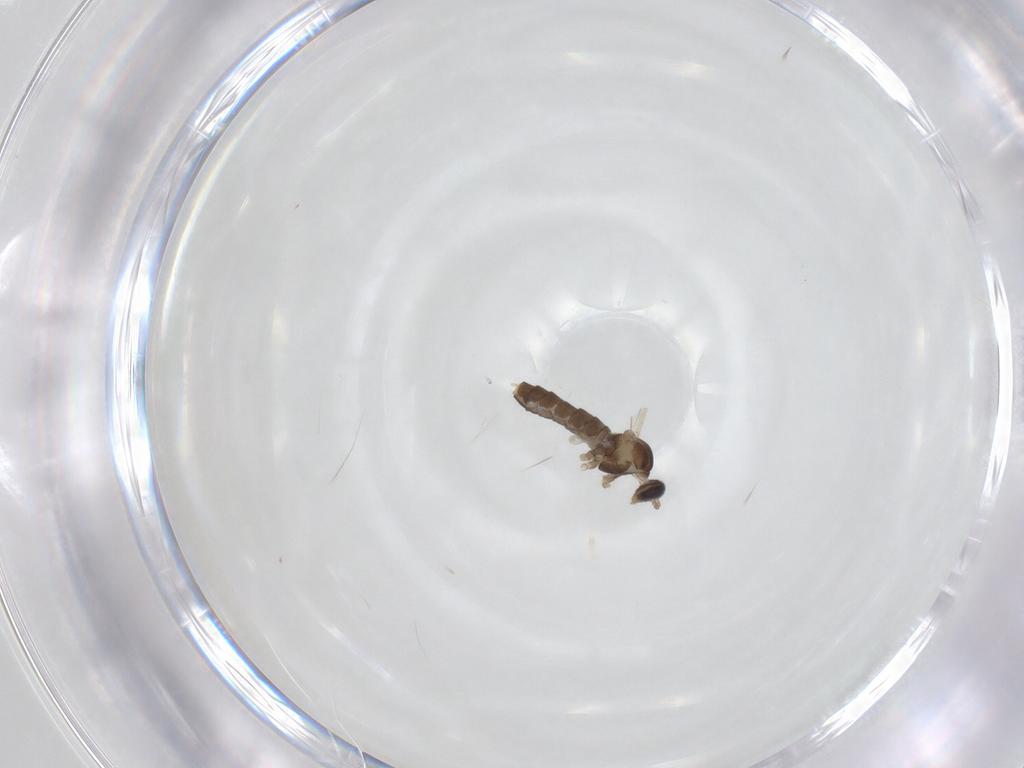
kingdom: Animalia
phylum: Arthropoda
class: Insecta
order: Diptera
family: Cecidomyiidae
